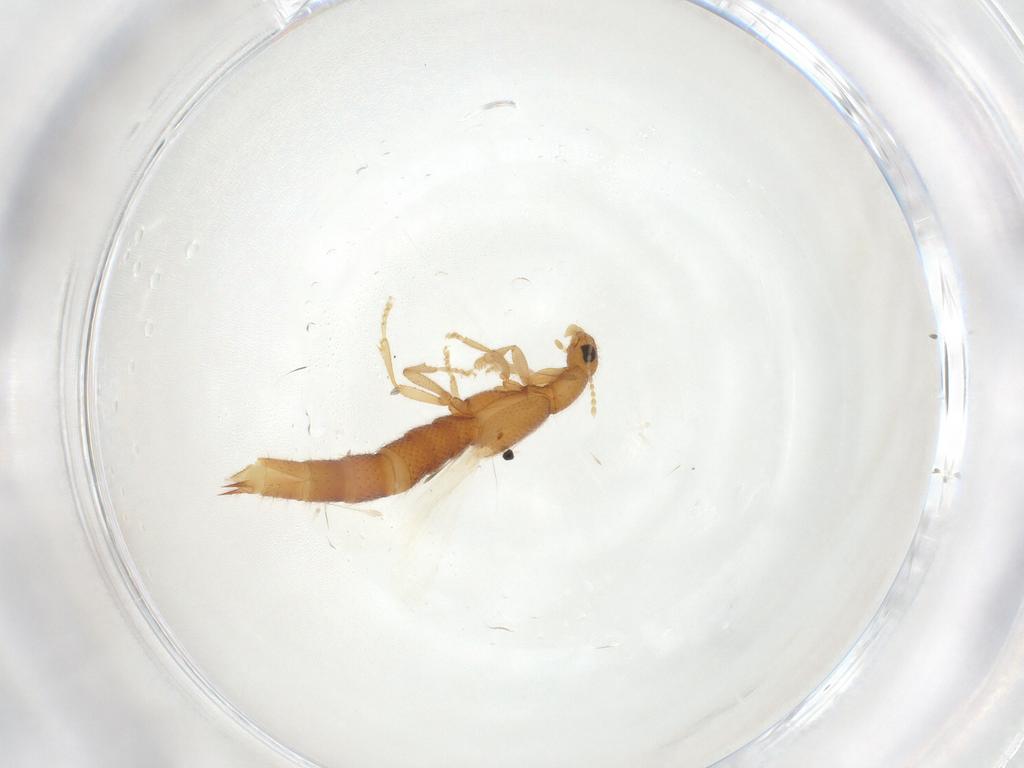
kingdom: Animalia
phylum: Arthropoda
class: Insecta
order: Coleoptera
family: Staphylinidae
